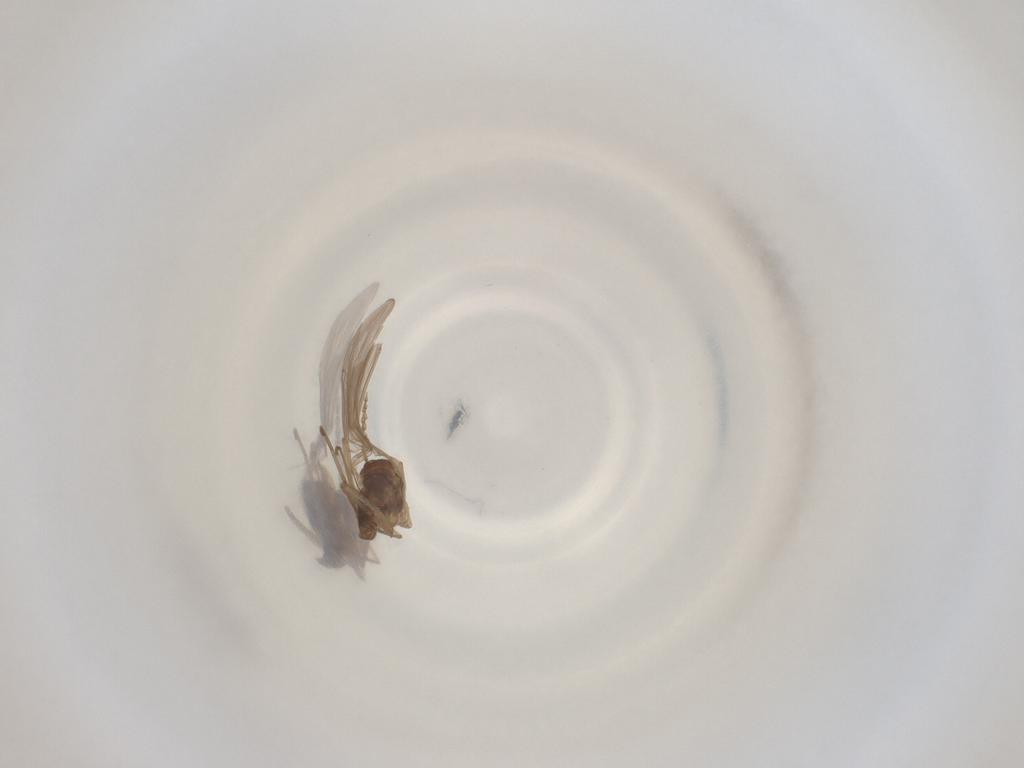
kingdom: Animalia
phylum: Arthropoda
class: Insecta
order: Diptera
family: Cecidomyiidae
